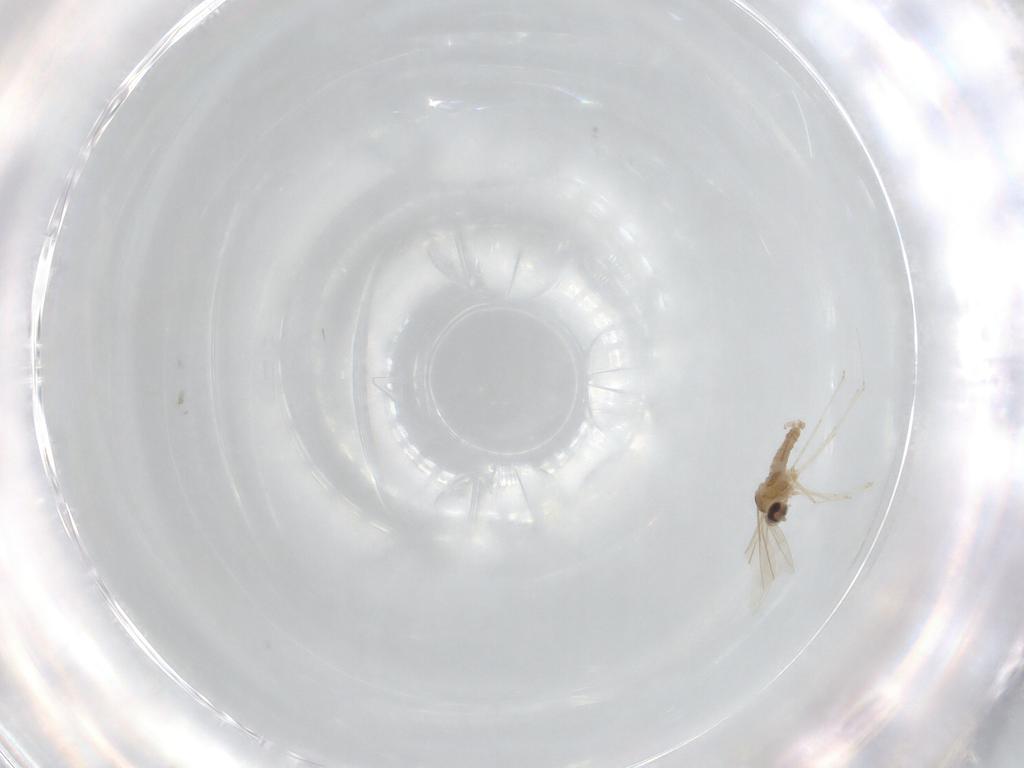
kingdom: Animalia
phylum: Arthropoda
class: Insecta
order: Diptera
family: Cecidomyiidae
